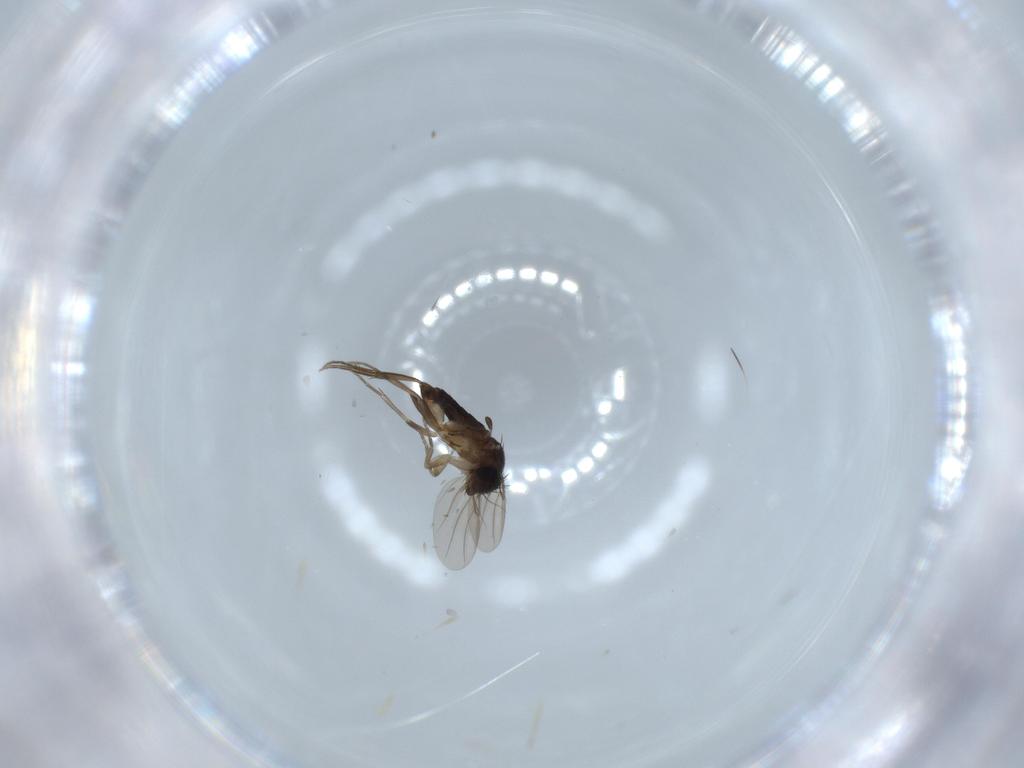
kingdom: Animalia
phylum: Arthropoda
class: Insecta
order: Diptera
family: Phoridae
